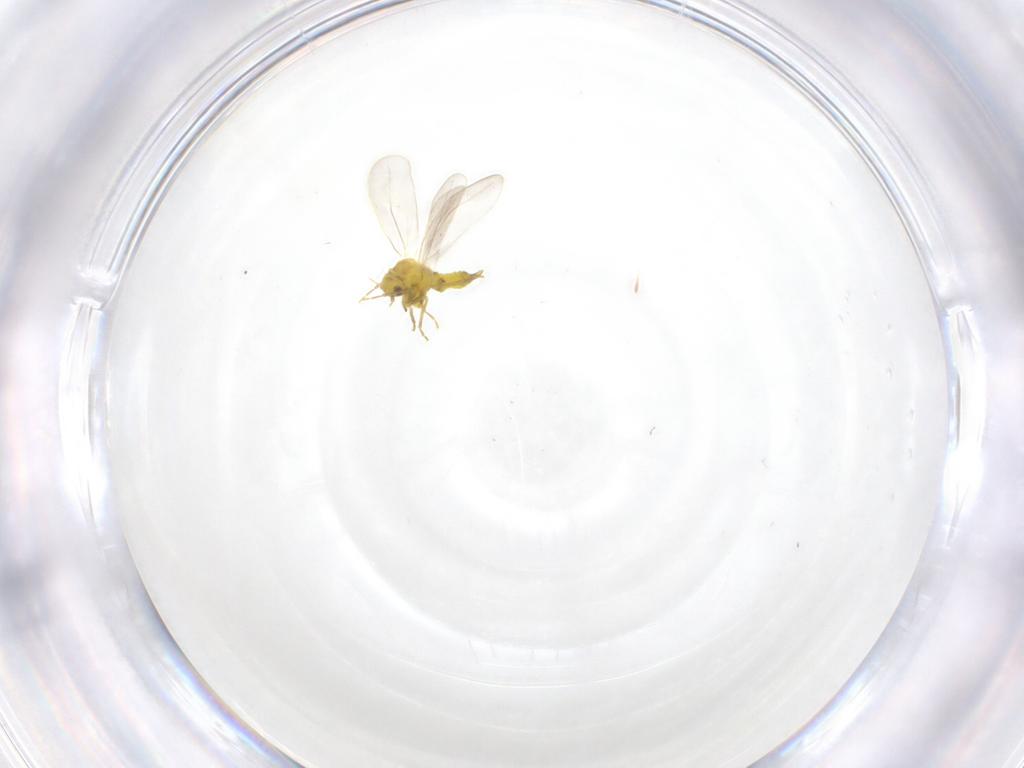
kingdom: Animalia
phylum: Arthropoda
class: Insecta
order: Hemiptera
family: Aleyrodidae
